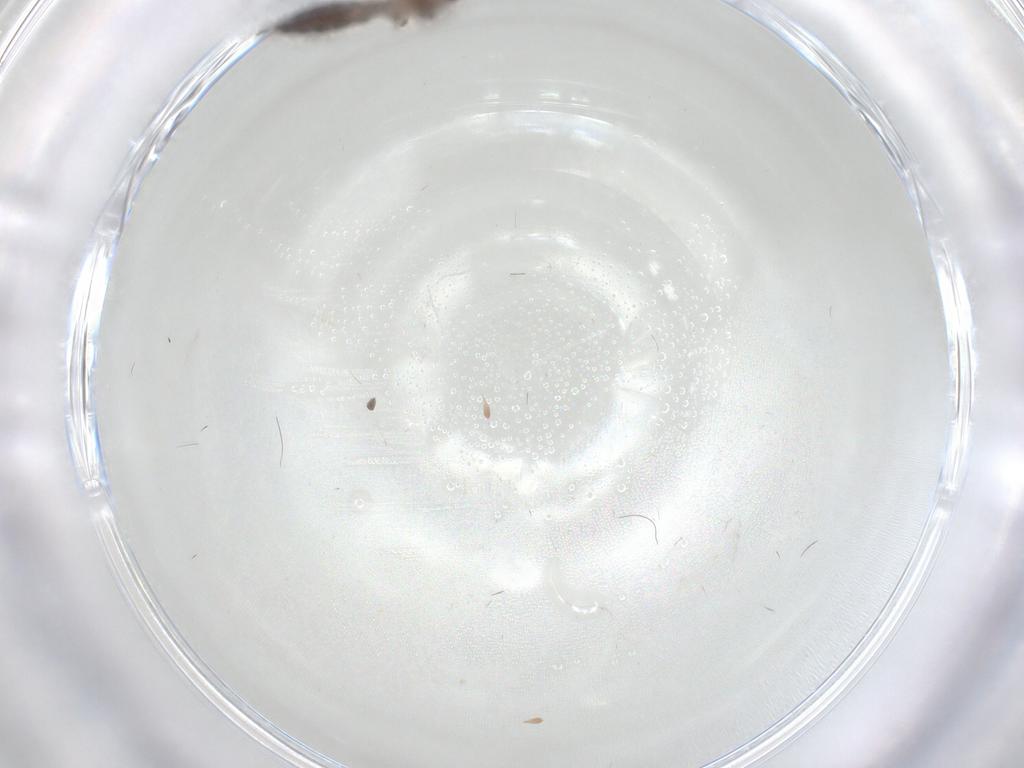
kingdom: Animalia
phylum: Arthropoda
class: Insecta
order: Diptera
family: Sciaridae
